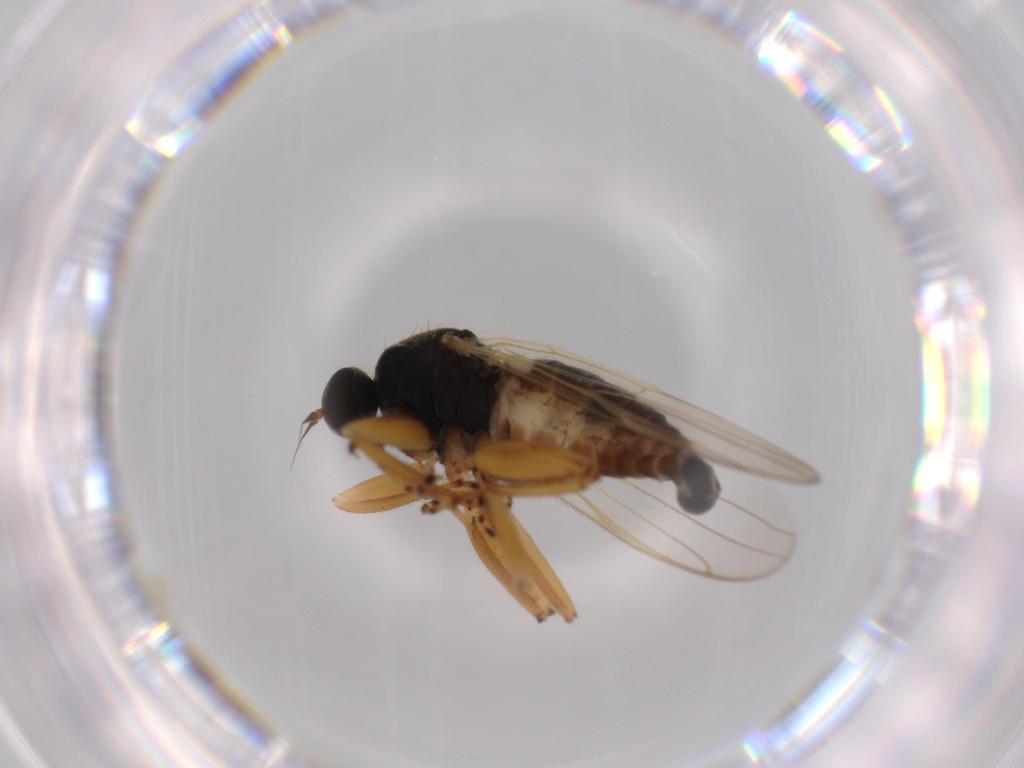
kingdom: Animalia
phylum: Arthropoda
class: Insecta
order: Diptera
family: Hybotidae
